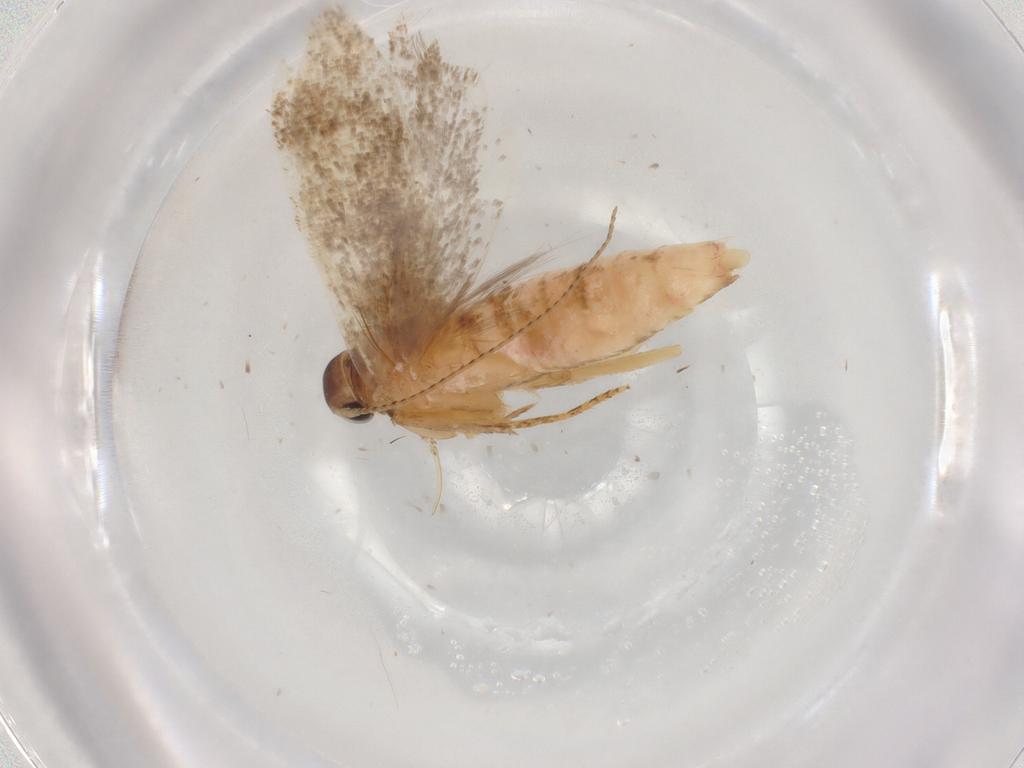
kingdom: Animalia
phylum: Arthropoda
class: Insecta
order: Lepidoptera
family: Gelechiidae
